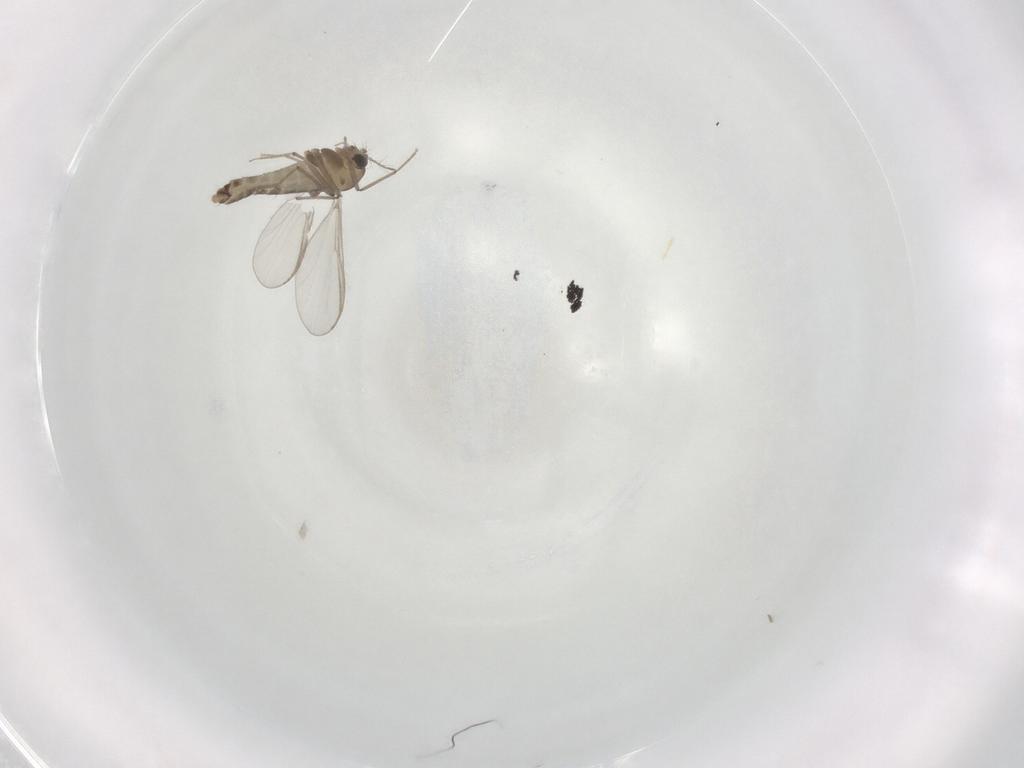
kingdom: Animalia
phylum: Arthropoda
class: Insecta
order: Diptera
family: Chironomidae
